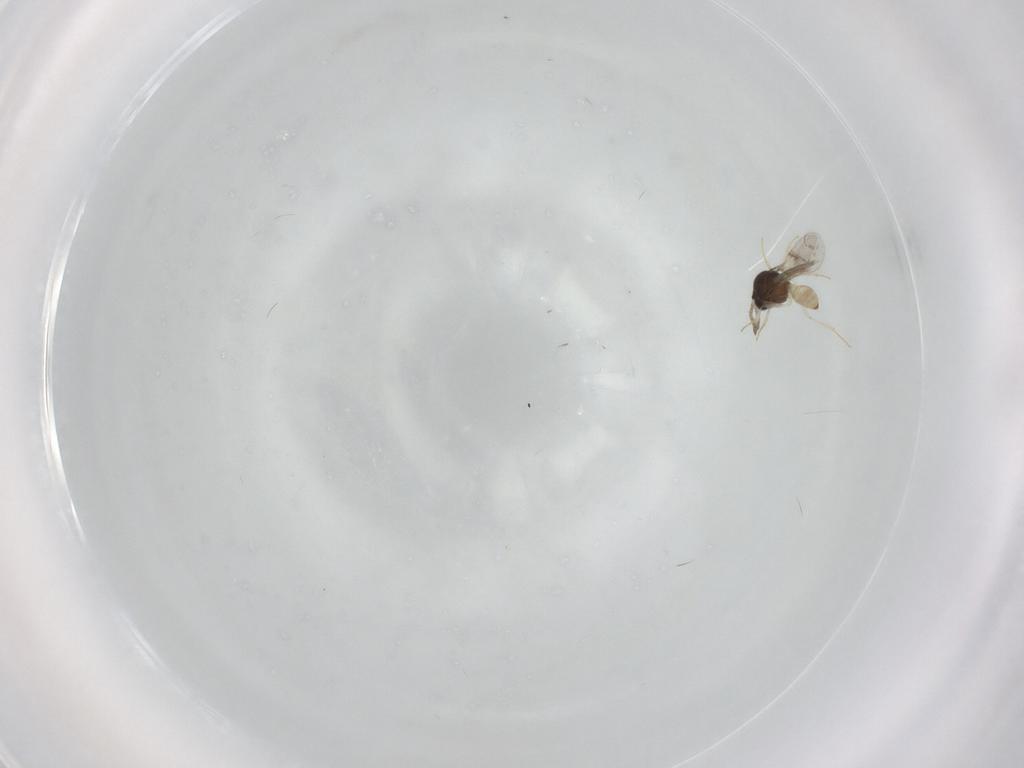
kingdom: Animalia
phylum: Arthropoda
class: Insecta
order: Hymenoptera
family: Scelionidae
